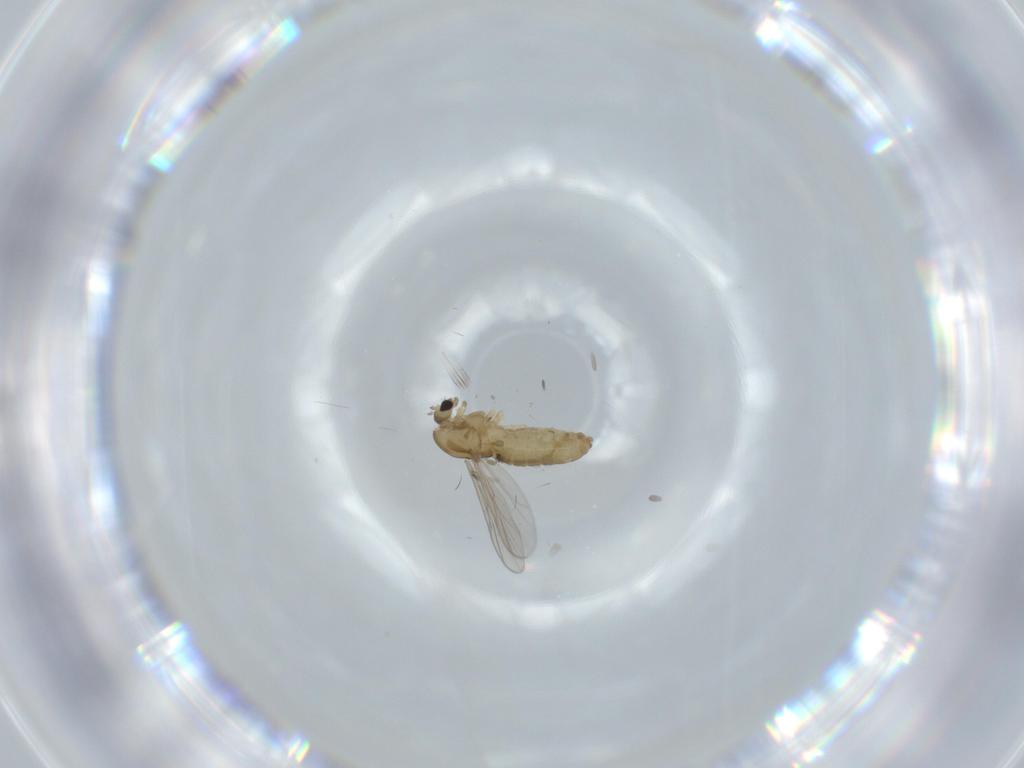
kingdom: Animalia
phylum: Arthropoda
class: Insecta
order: Diptera
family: Chironomidae
